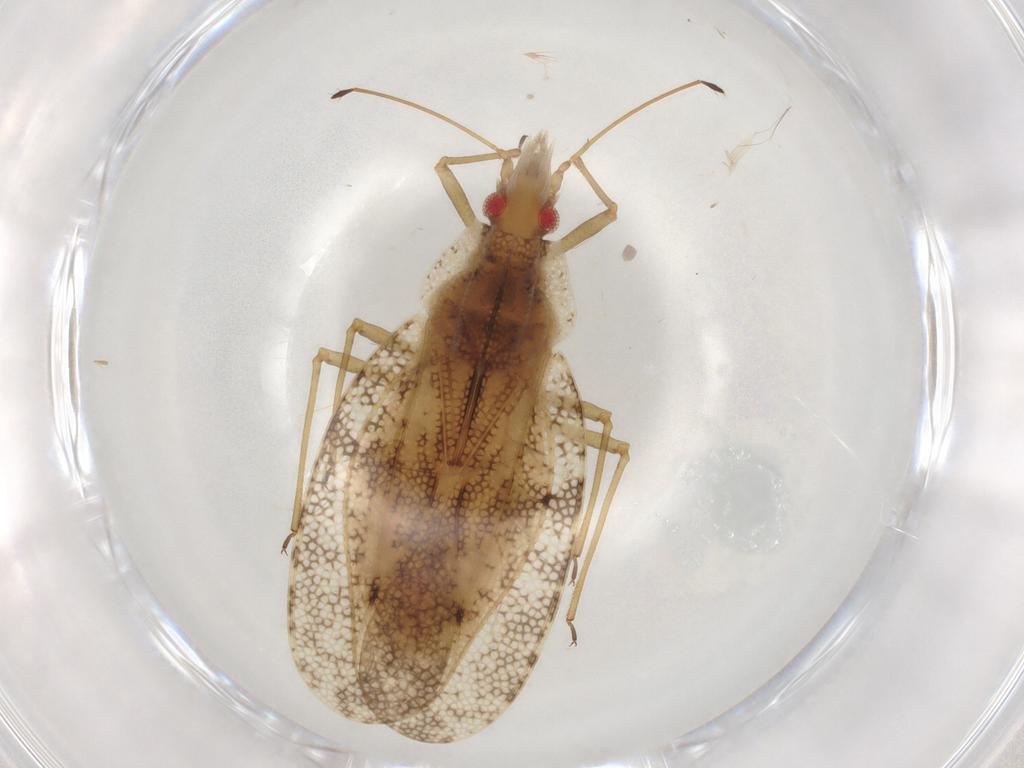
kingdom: Animalia
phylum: Arthropoda
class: Insecta
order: Hemiptera
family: Tingidae
